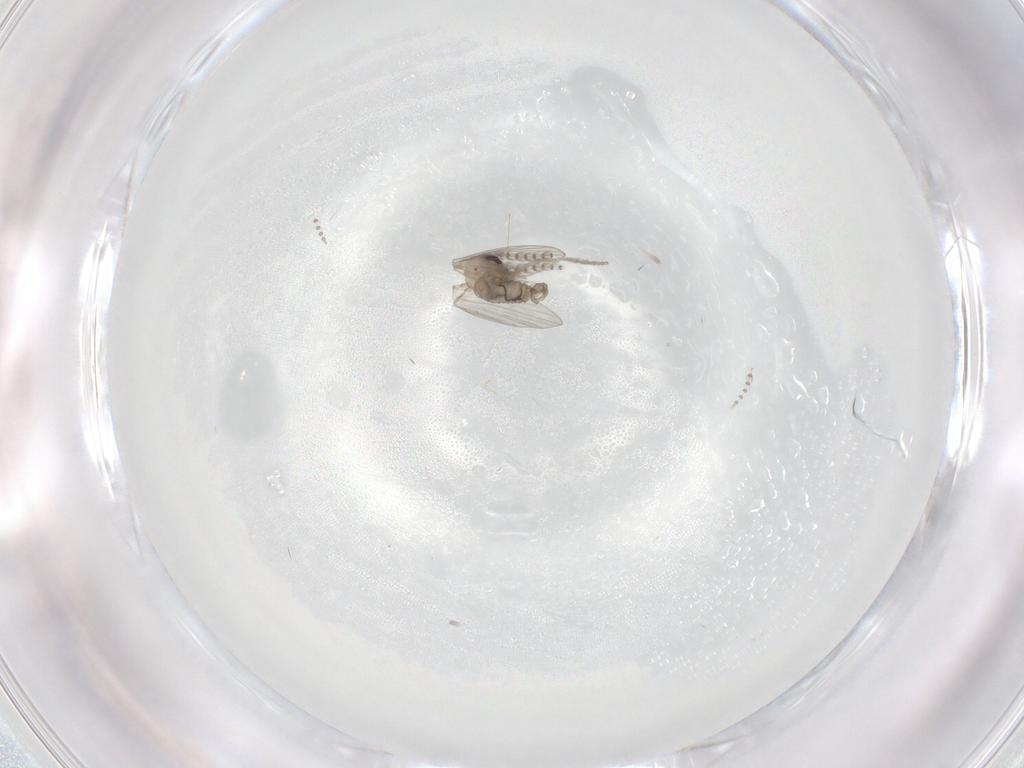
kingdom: Animalia
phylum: Arthropoda
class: Insecta
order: Diptera
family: Psychodidae
